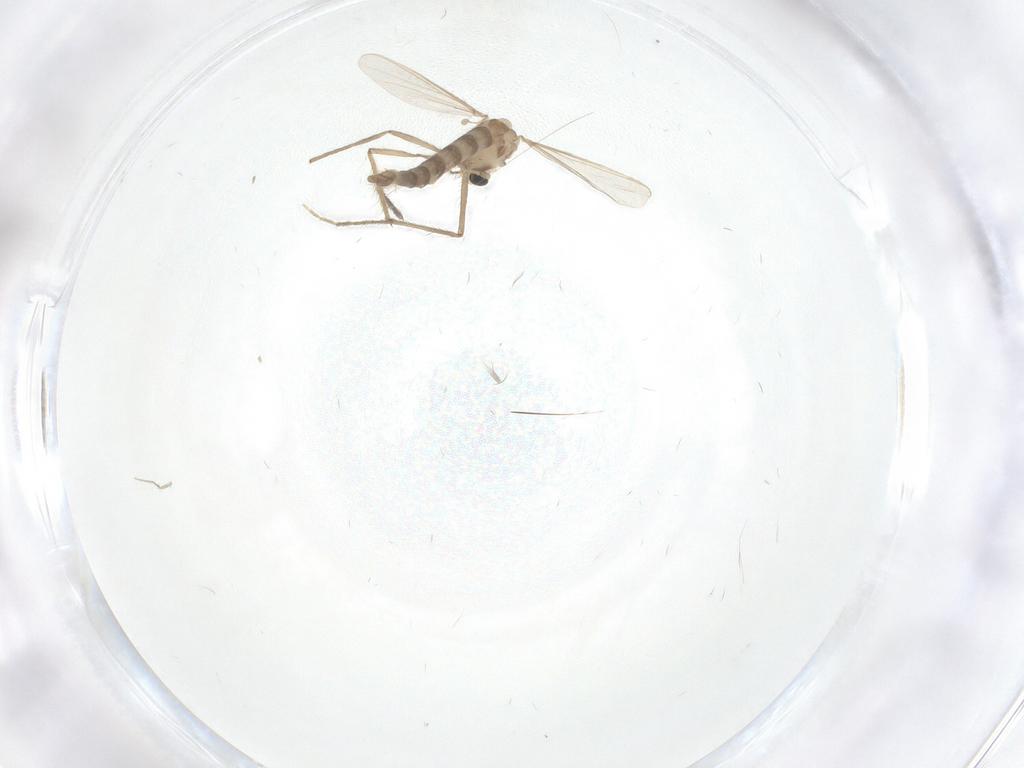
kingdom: Animalia
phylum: Arthropoda
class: Insecta
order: Diptera
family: Chironomidae
